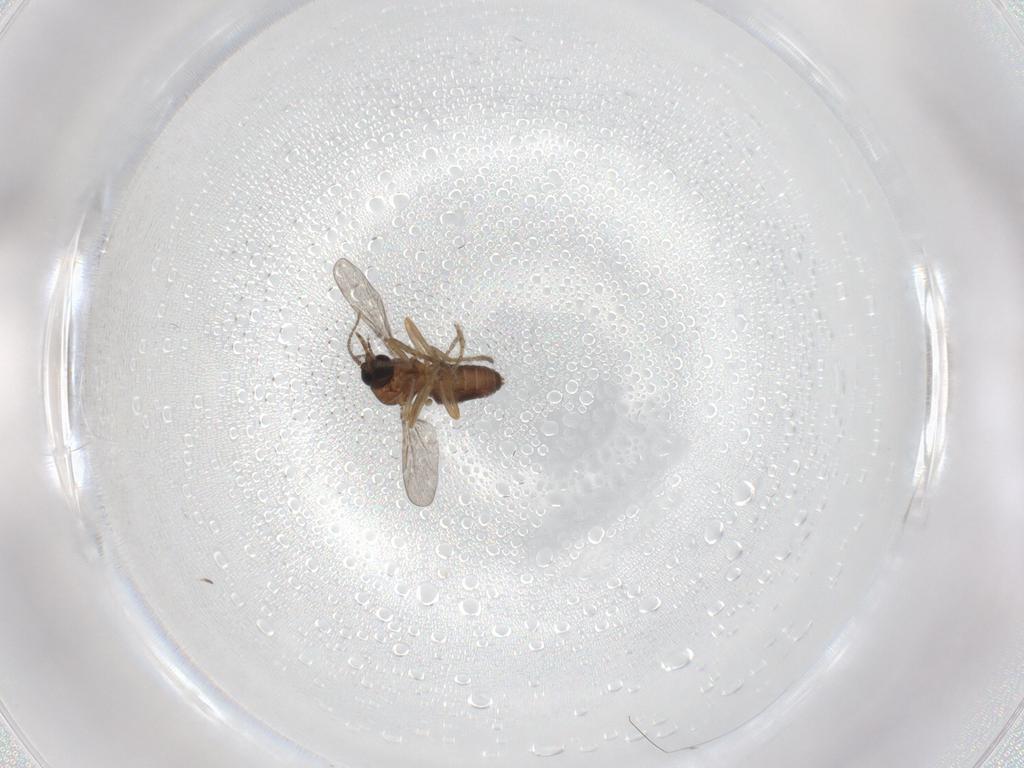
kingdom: Animalia
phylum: Arthropoda
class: Insecta
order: Diptera
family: Ceratopogonidae
